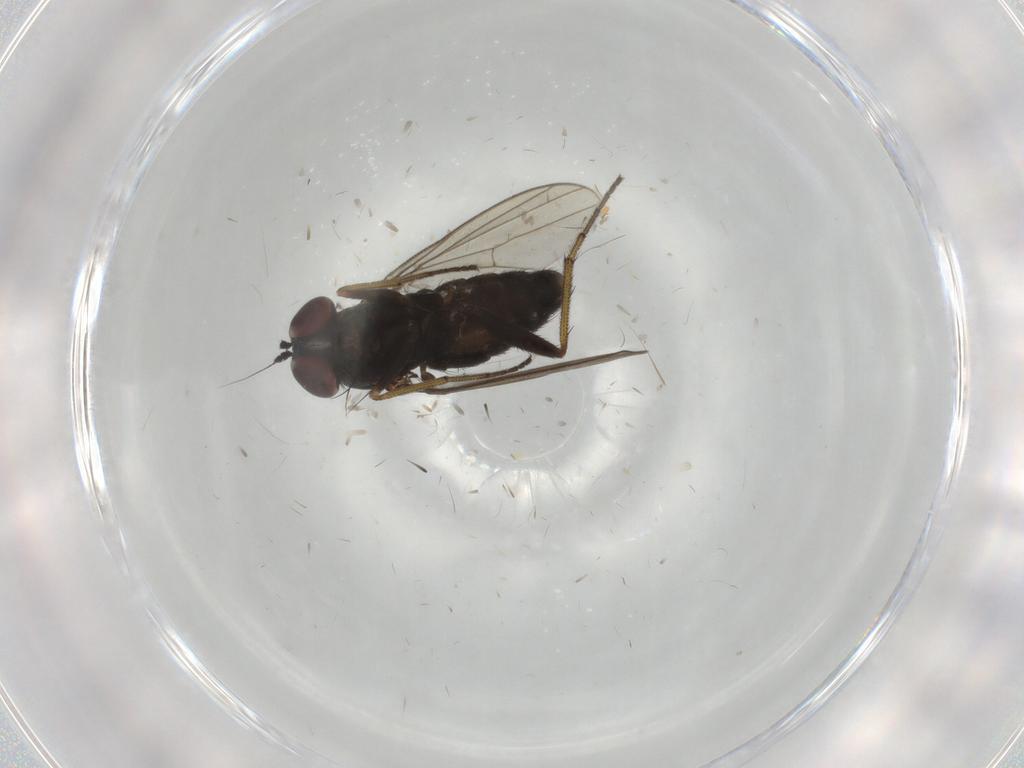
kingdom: Animalia
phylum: Arthropoda
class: Insecta
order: Diptera
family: Dolichopodidae
